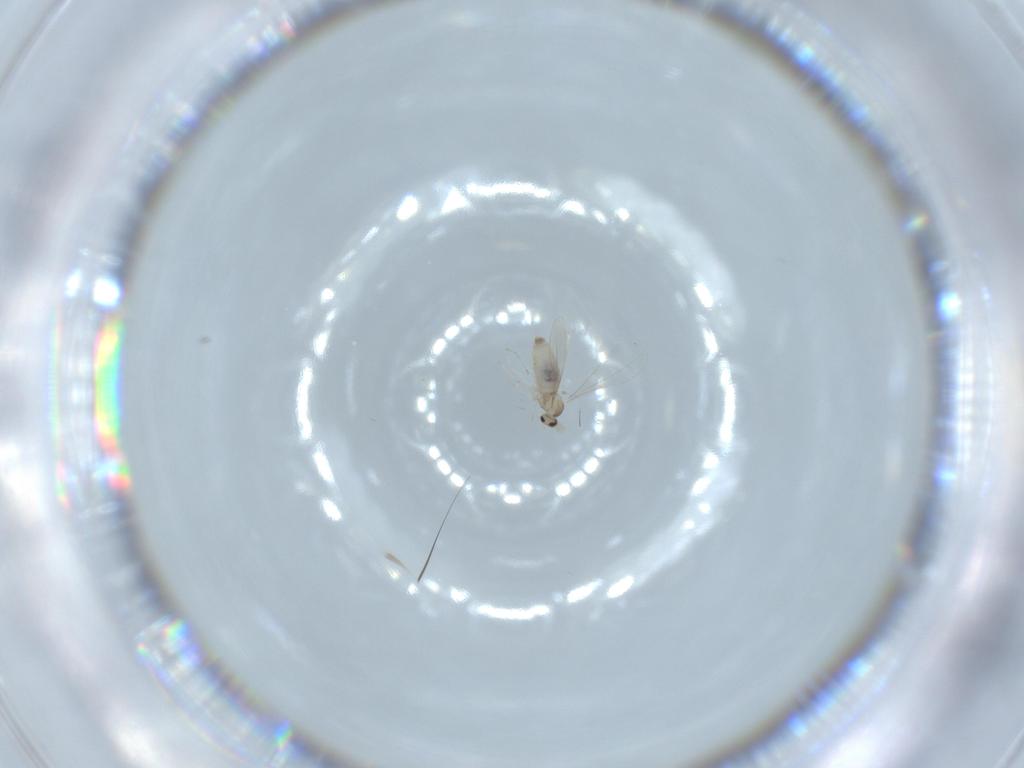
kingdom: Animalia
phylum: Arthropoda
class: Insecta
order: Diptera
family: Cecidomyiidae
